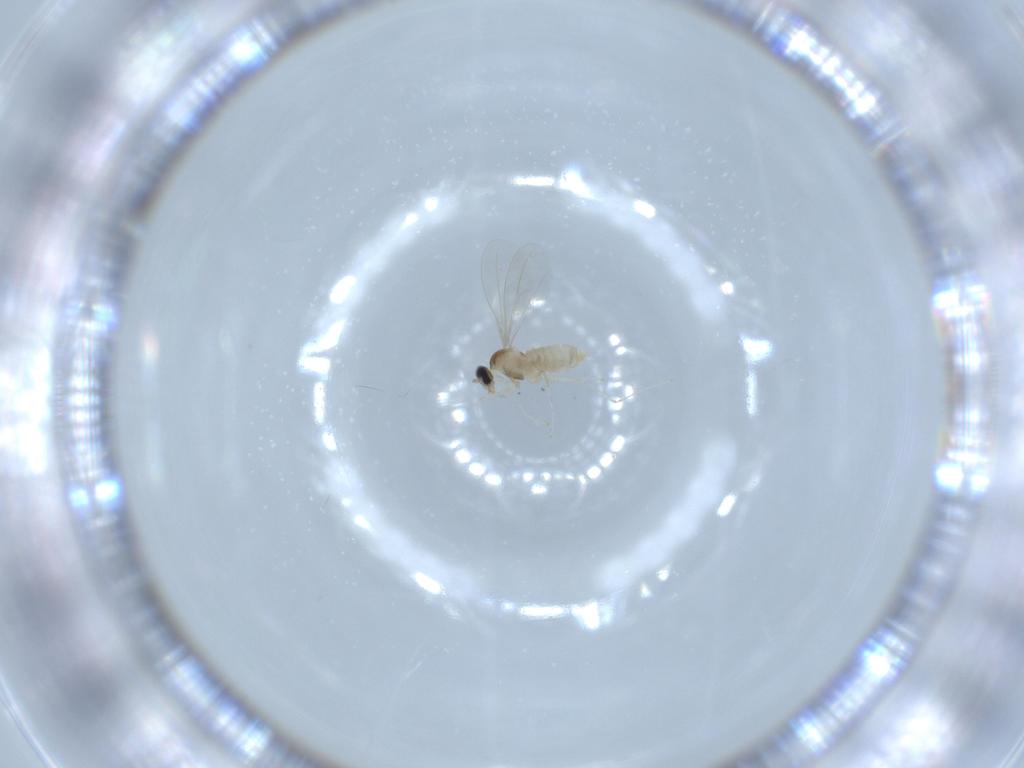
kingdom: Animalia
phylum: Arthropoda
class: Insecta
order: Diptera
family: Cecidomyiidae
